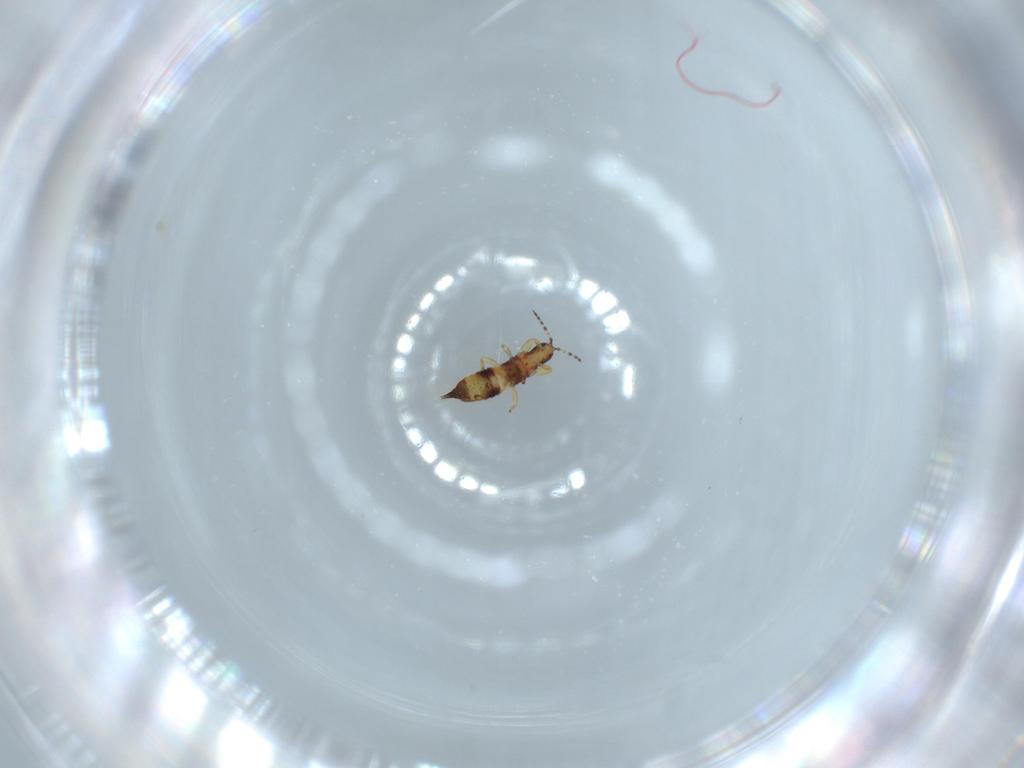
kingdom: Animalia
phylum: Arthropoda
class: Insecta
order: Thysanoptera
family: Phlaeothripidae
